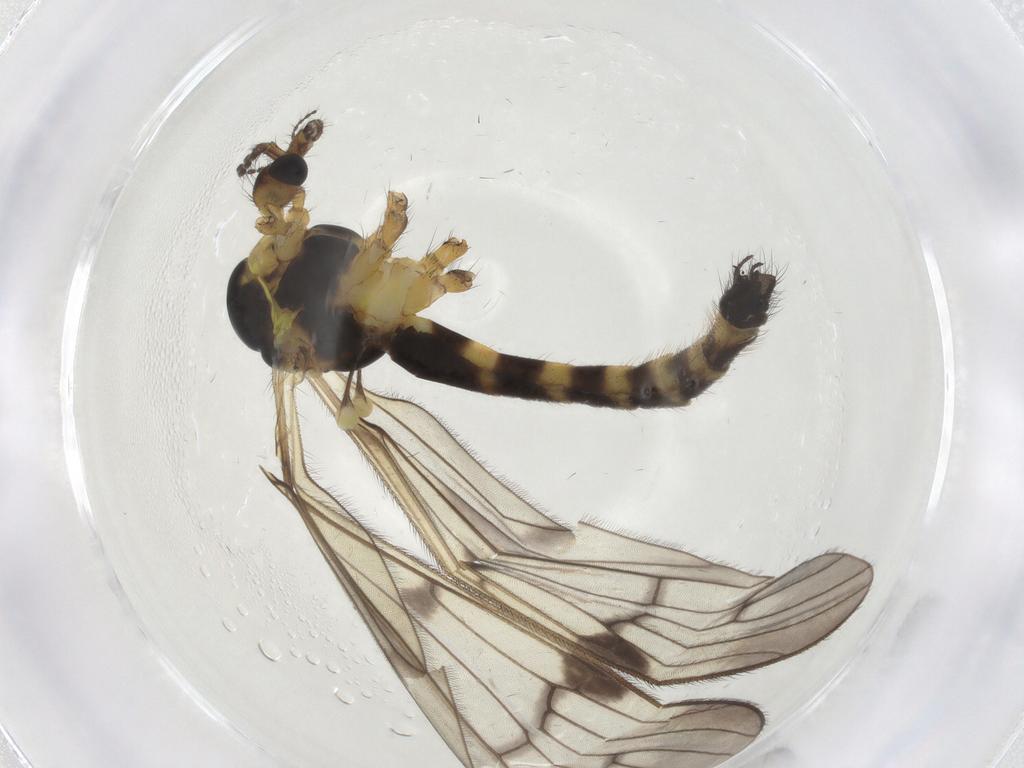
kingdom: Animalia
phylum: Arthropoda
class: Insecta
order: Diptera
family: Limoniidae
